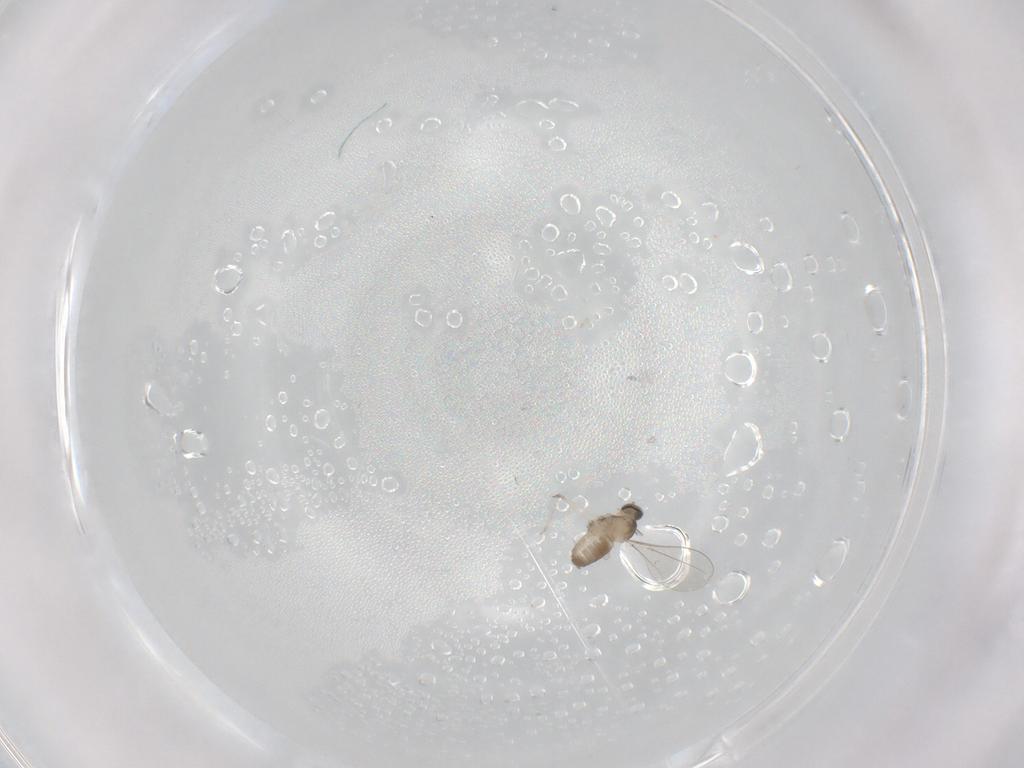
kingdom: Animalia
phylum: Arthropoda
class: Insecta
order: Diptera
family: Cecidomyiidae
